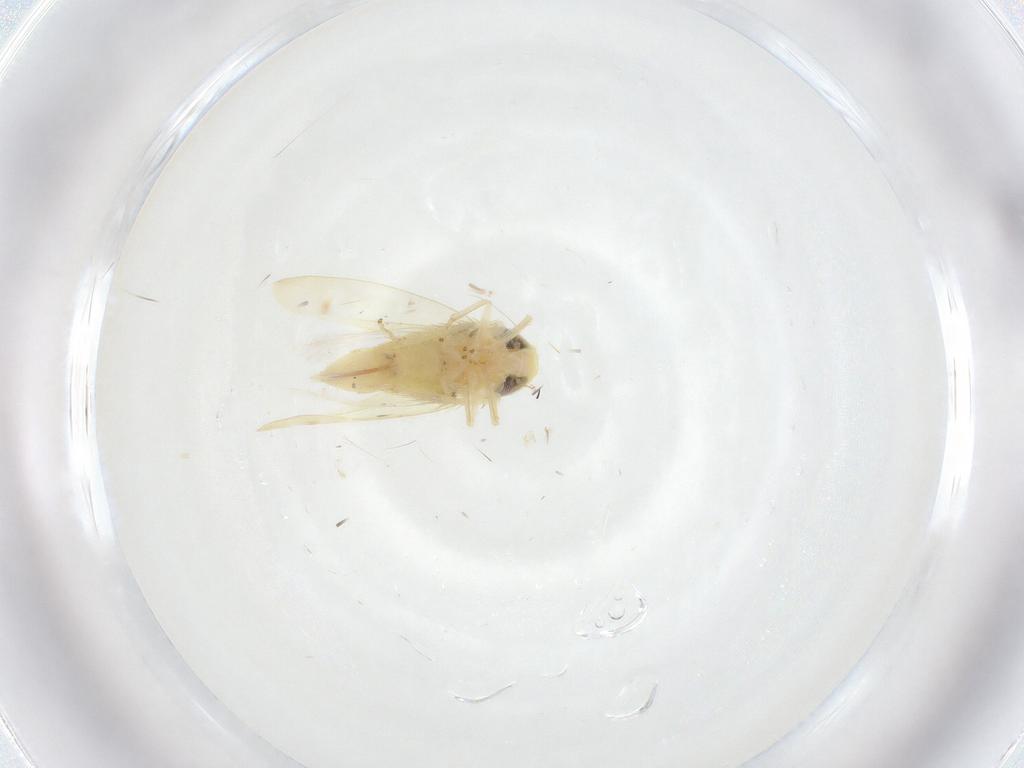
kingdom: Animalia
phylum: Arthropoda
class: Insecta
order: Hemiptera
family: Cicadellidae
